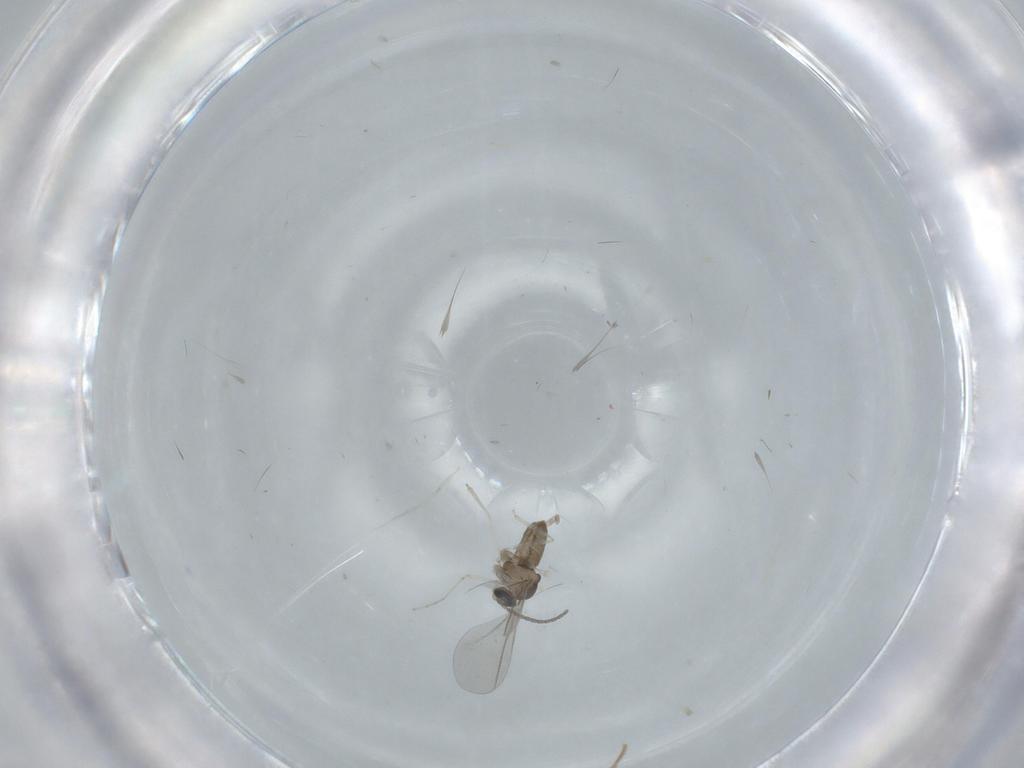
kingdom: Animalia
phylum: Arthropoda
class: Insecta
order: Diptera
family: Cecidomyiidae
